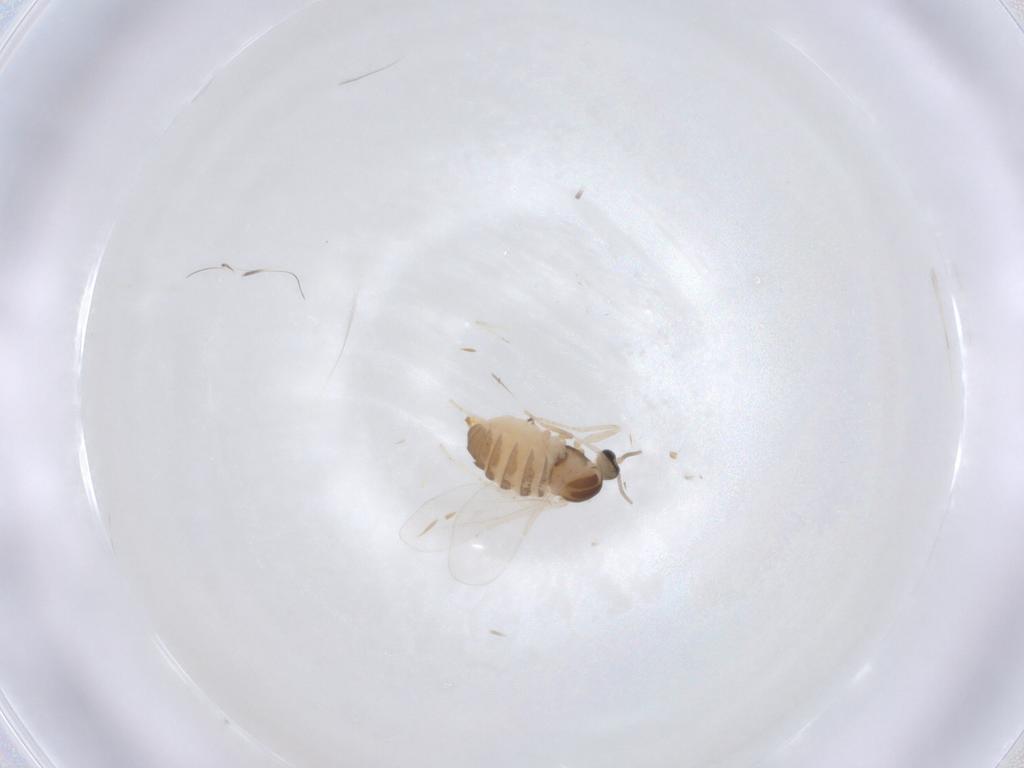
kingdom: Animalia
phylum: Arthropoda
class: Insecta
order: Diptera
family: Cecidomyiidae
